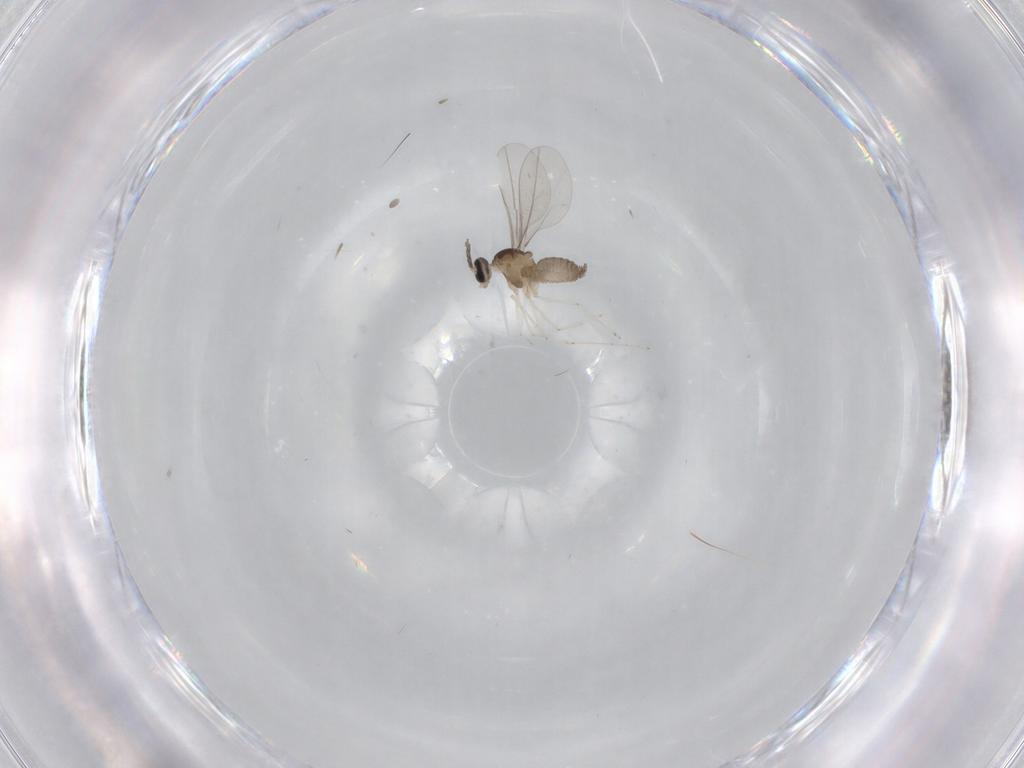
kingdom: Animalia
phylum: Arthropoda
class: Insecta
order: Diptera
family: Cecidomyiidae
